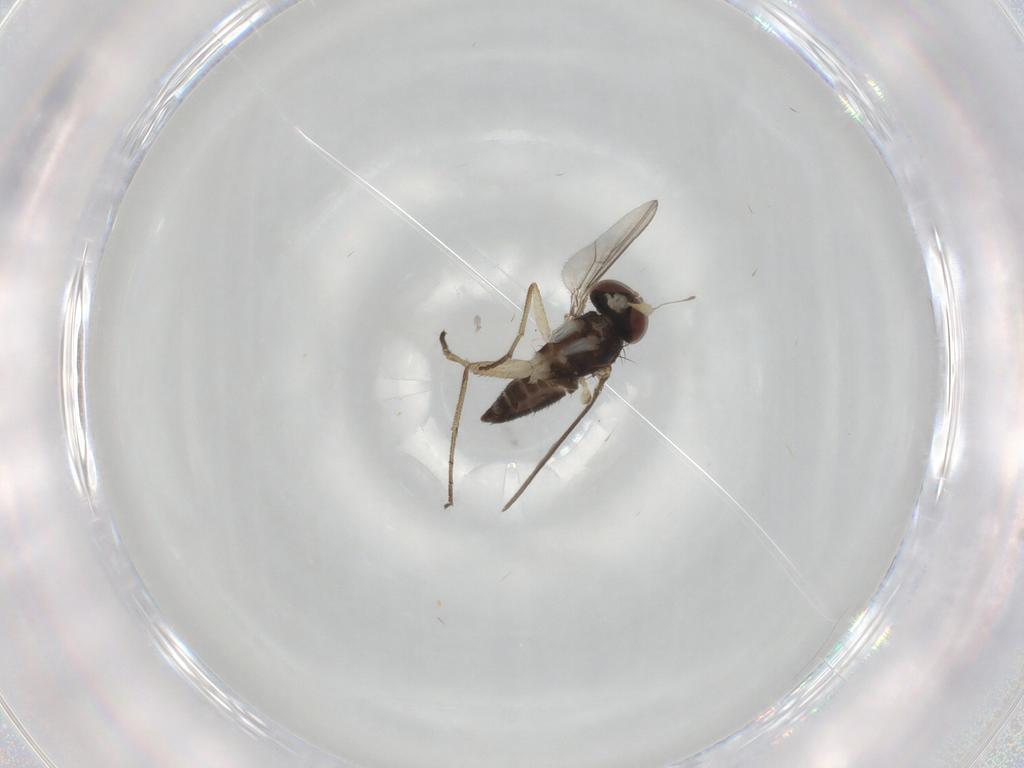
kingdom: Animalia
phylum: Arthropoda
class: Insecta
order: Diptera
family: Dolichopodidae
